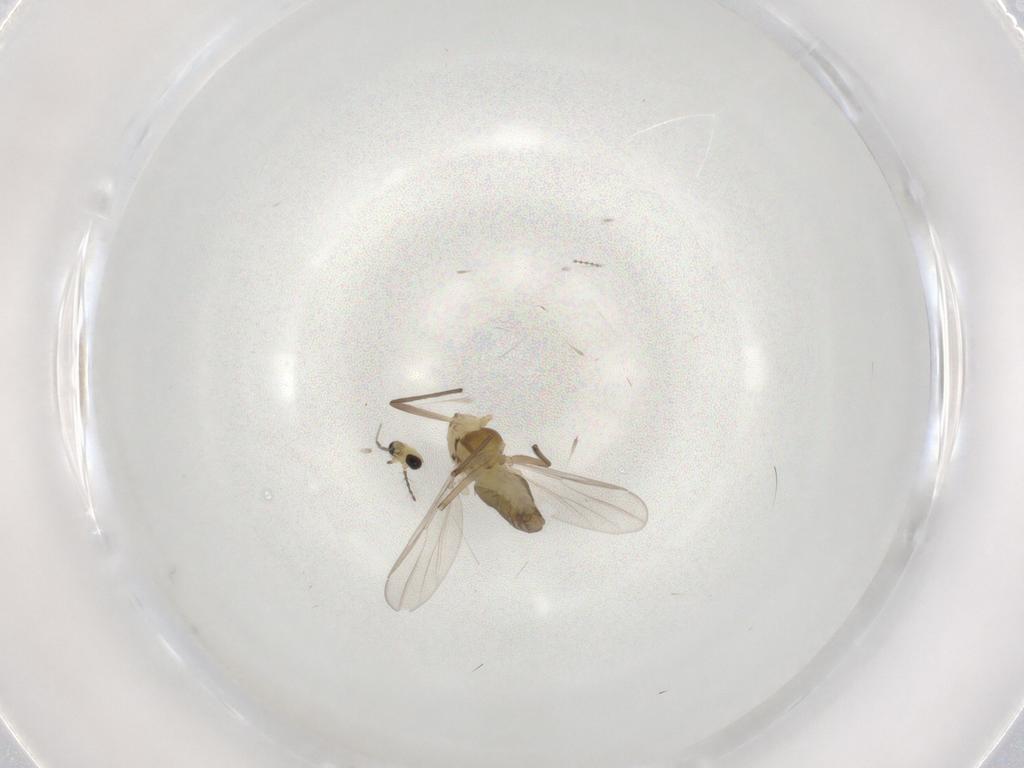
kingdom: Animalia
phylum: Arthropoda
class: Insecta
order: Diptera
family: Chironomidae
